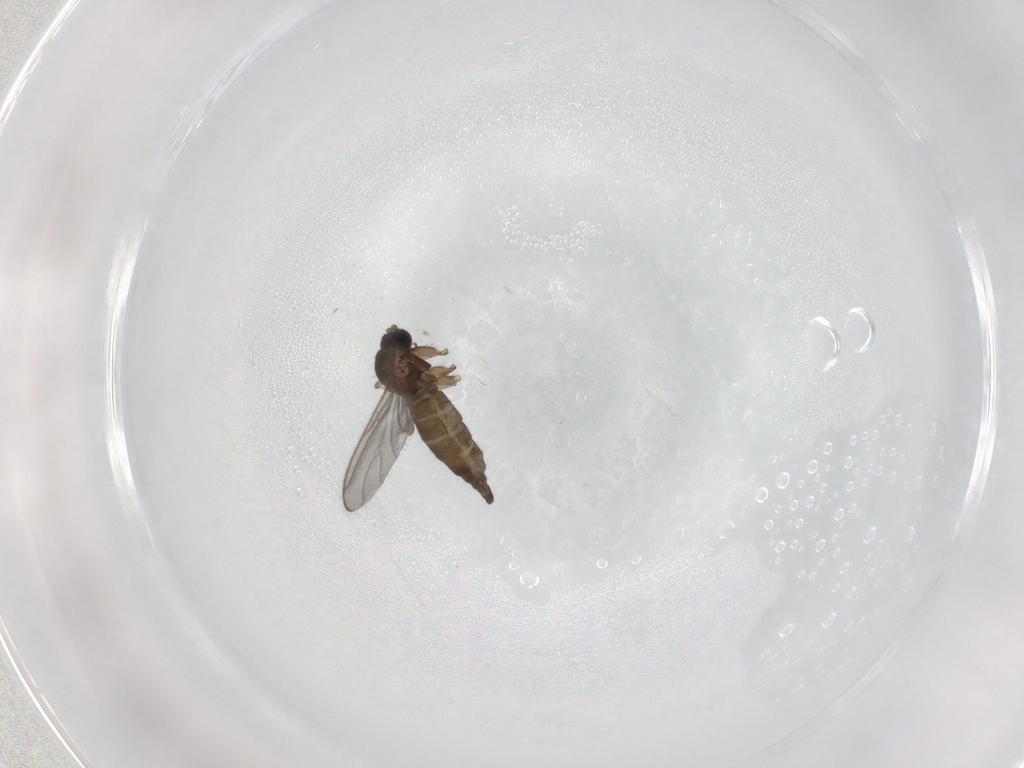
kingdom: Animalia
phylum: Arthropoda
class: Insecta
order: Diptera
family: Cecidomyiidae
